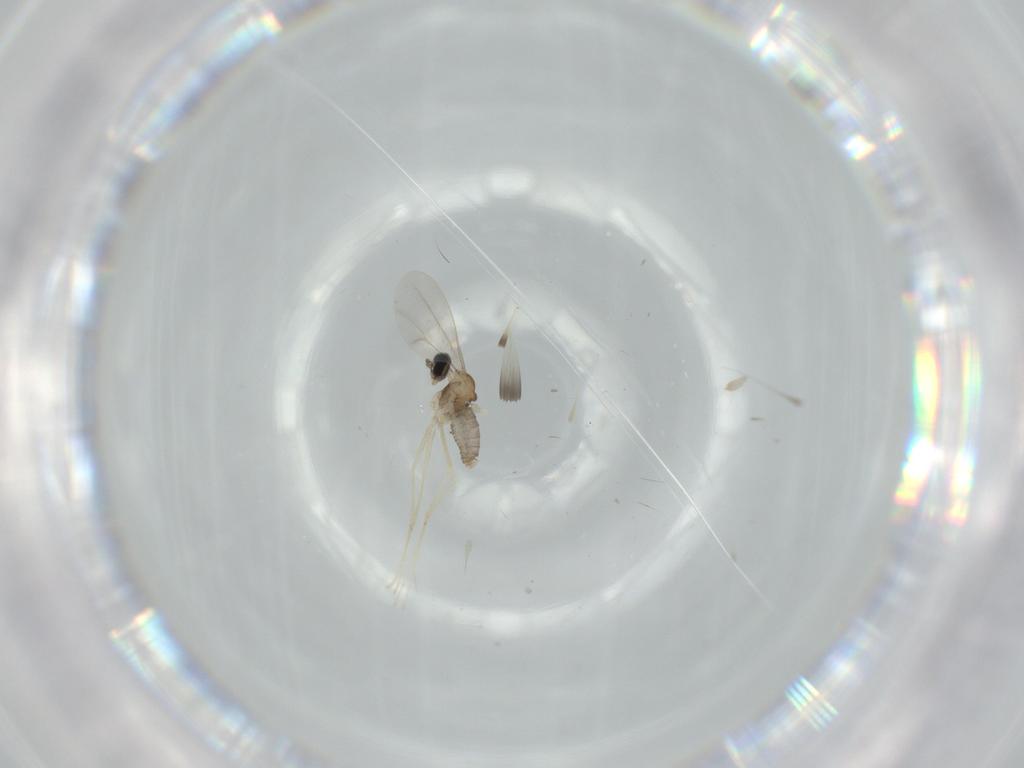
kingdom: Animalia
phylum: Arthropoda
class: Insecta
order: Diptera
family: Cecidomyiidae
